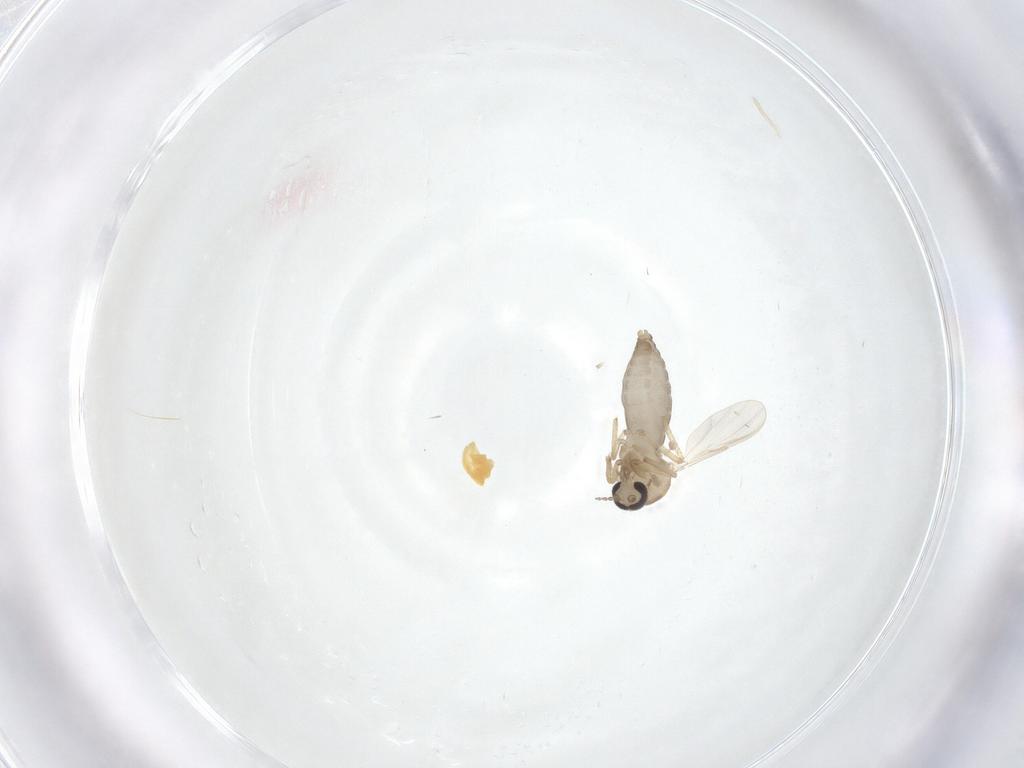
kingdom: Animalia
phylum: Arthropoda
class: Insecta
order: Diptera
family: Ceratopogonidae
